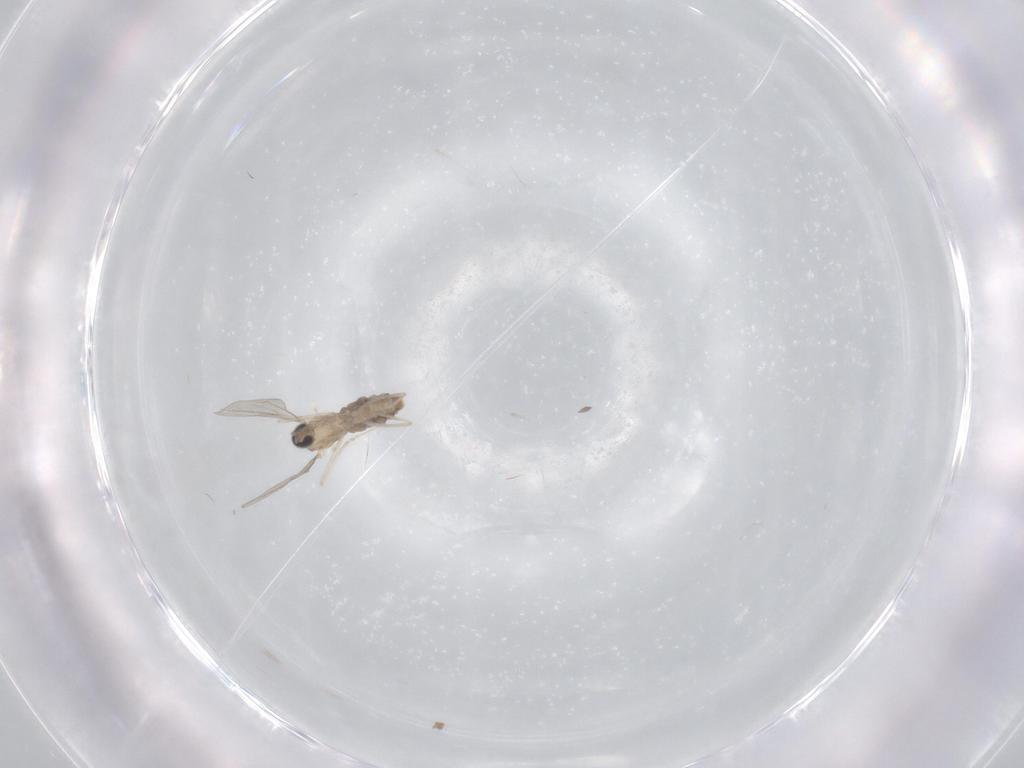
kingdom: Animalia
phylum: Arthropoda
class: Insecta
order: Diptera
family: Cecidomyiidae
